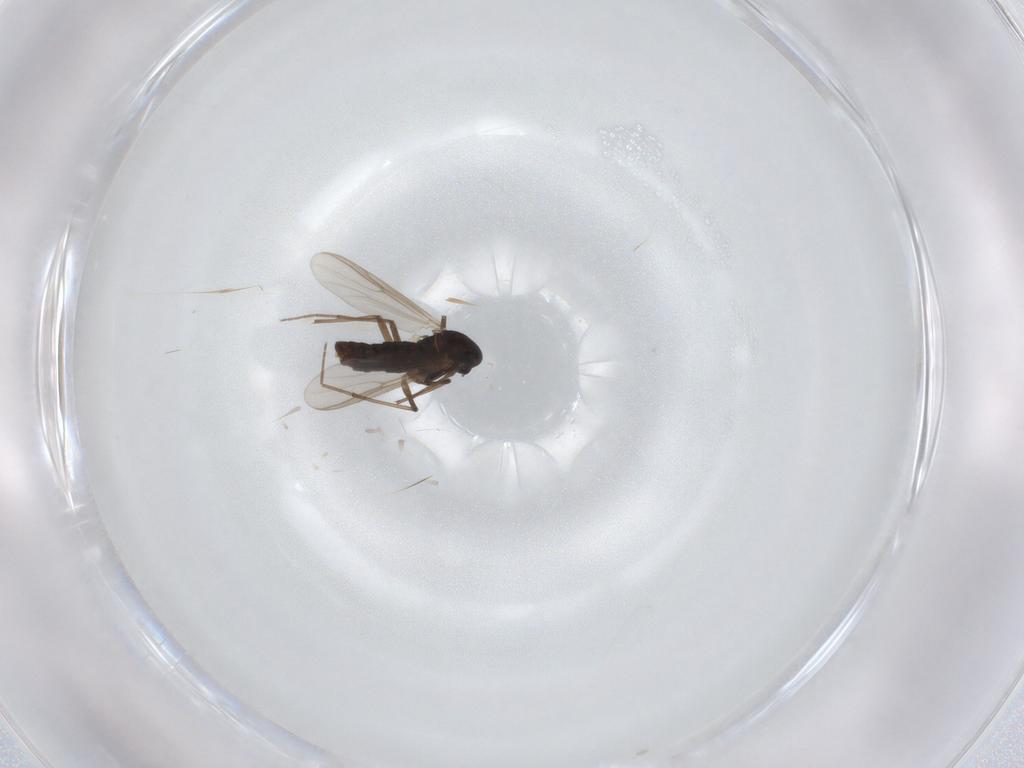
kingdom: Animalia
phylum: Arthropoda
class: Insecta
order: Diptera
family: Chironomidae
